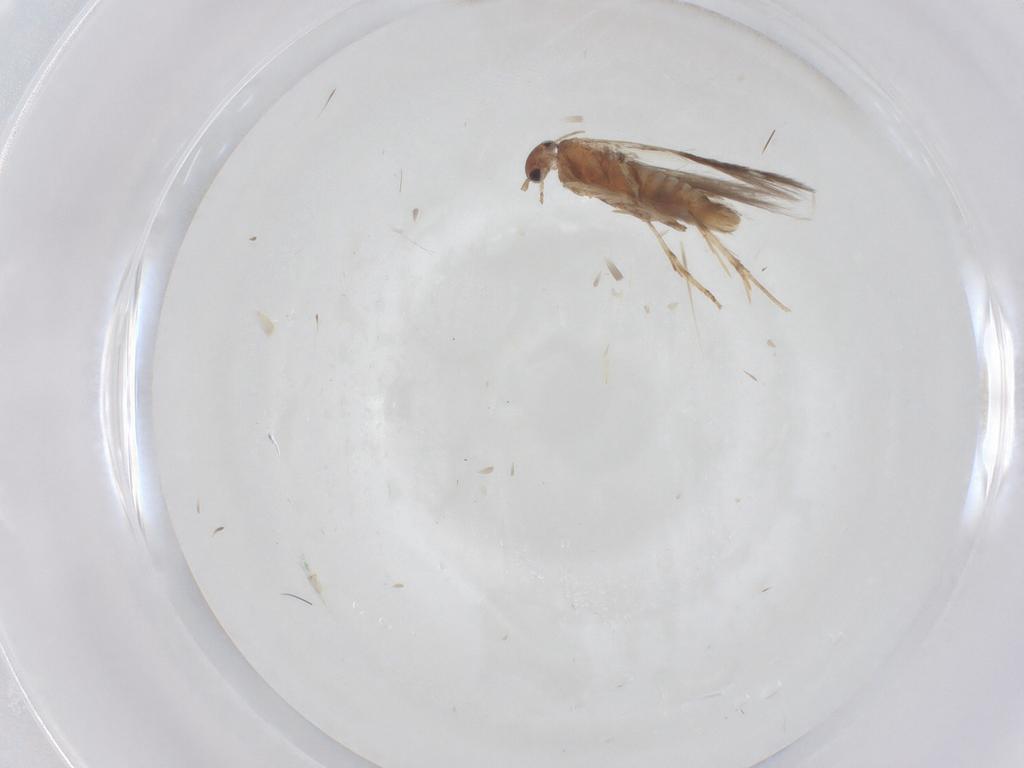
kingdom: Animalia
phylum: Arthropoda
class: Insecta
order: Lepidoptera
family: Gelechiidae
